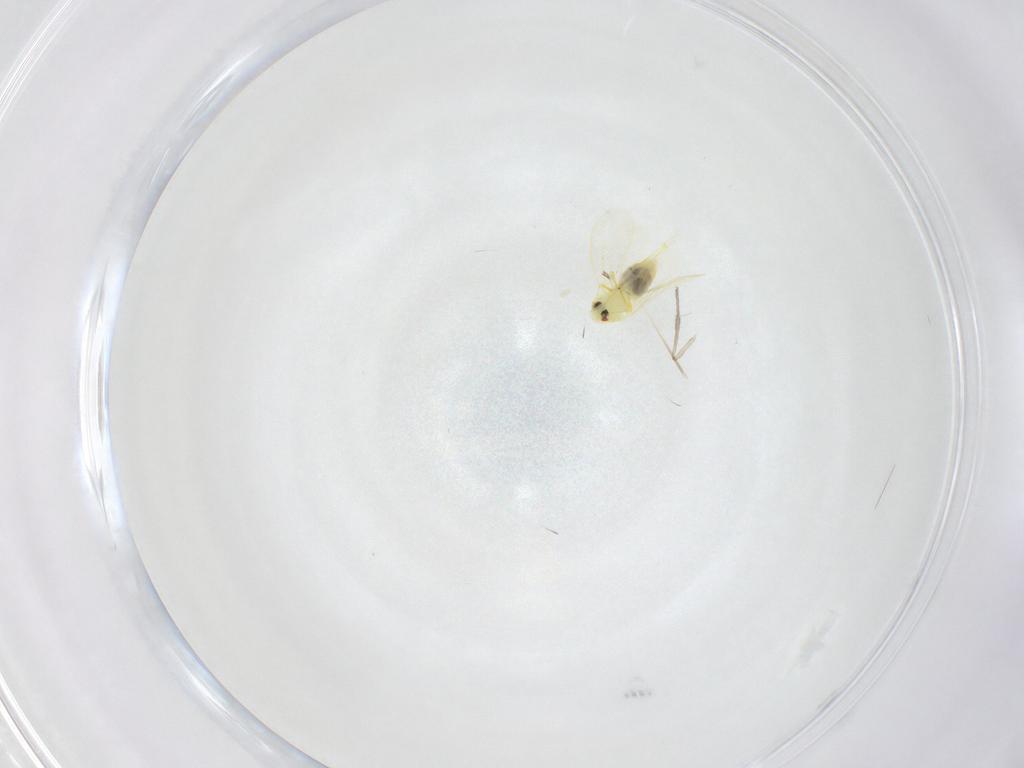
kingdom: Animalia
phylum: Arthropoda
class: Insecta
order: Hemiptera
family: Aleyrodidae
